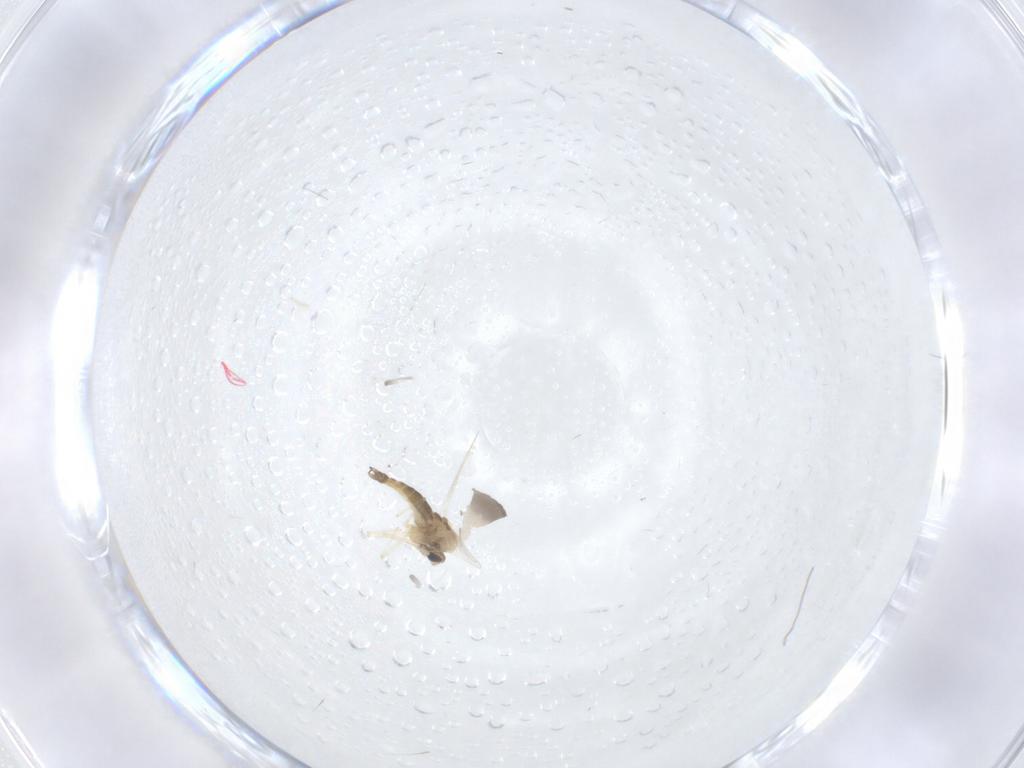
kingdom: Animalia
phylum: Arthropoda
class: Insecta
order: Diptera
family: Chironomidae
